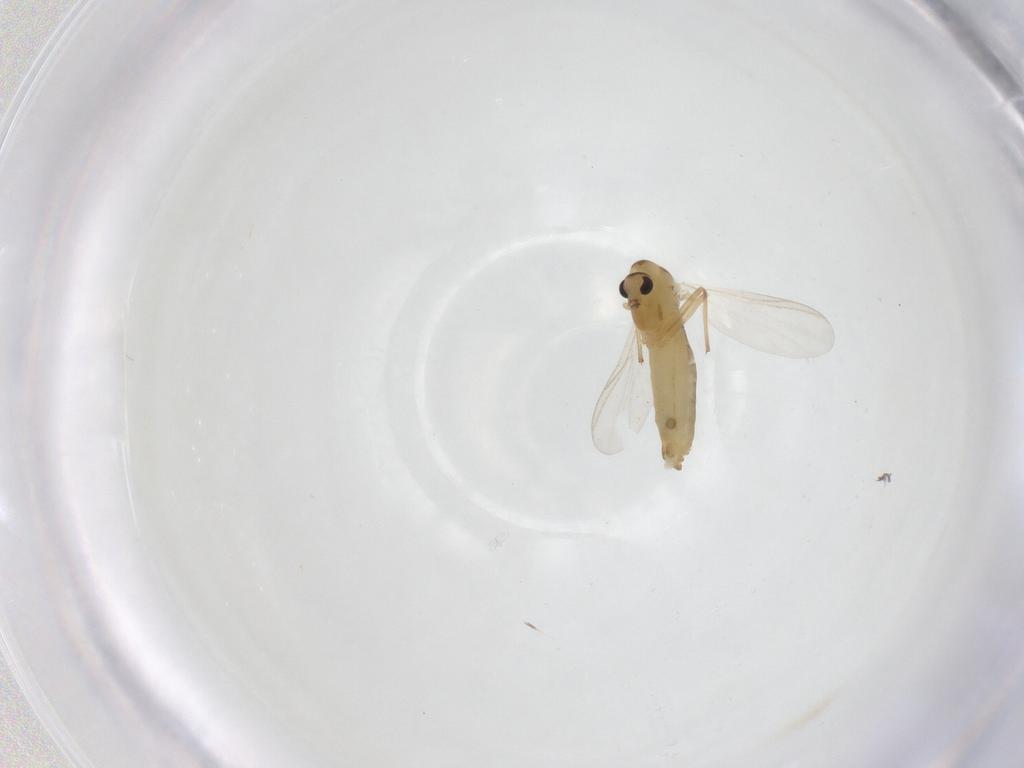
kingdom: Animalia
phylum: Arthropoda
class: Insecta
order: Diptera
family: Chironomidae
